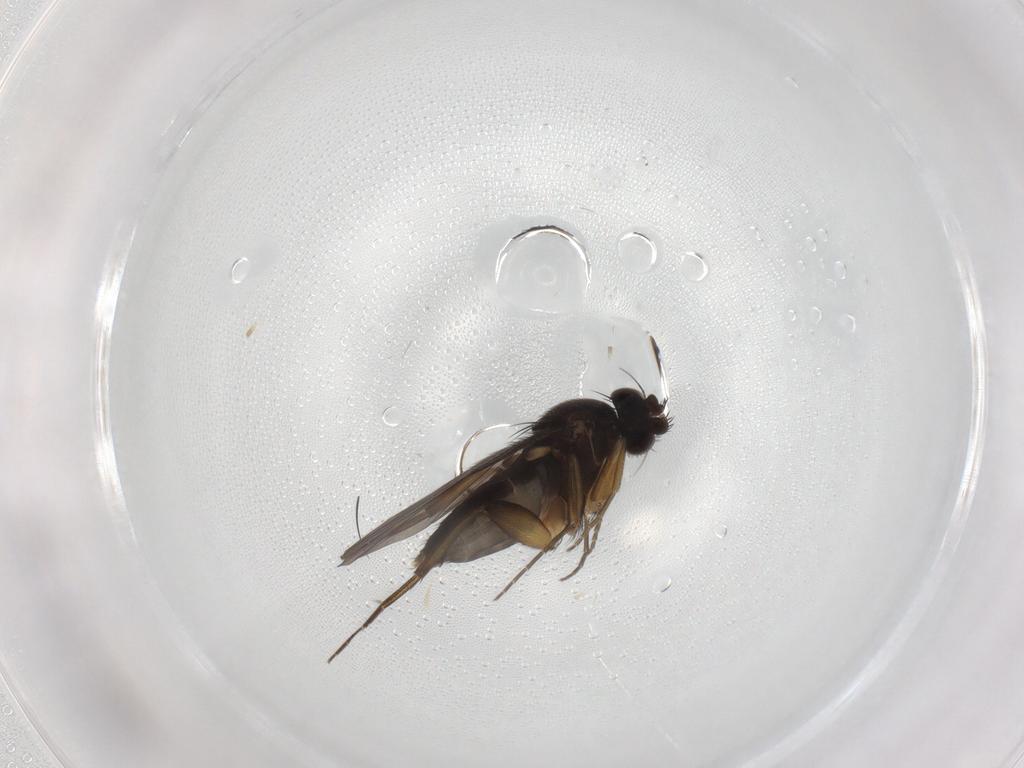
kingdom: Animalia
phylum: Arthropoda
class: Insecta
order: Diptera
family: Phoridae
